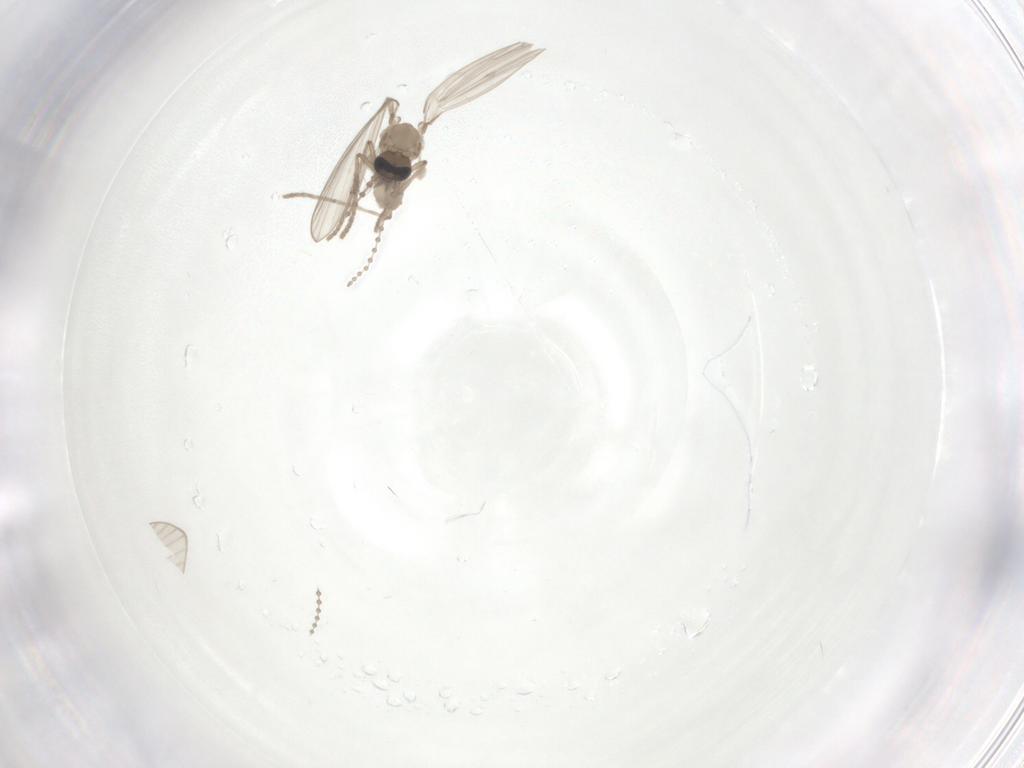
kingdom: Animalia
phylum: Arthropoda
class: Insecta
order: Diptera
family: Psychodidae
